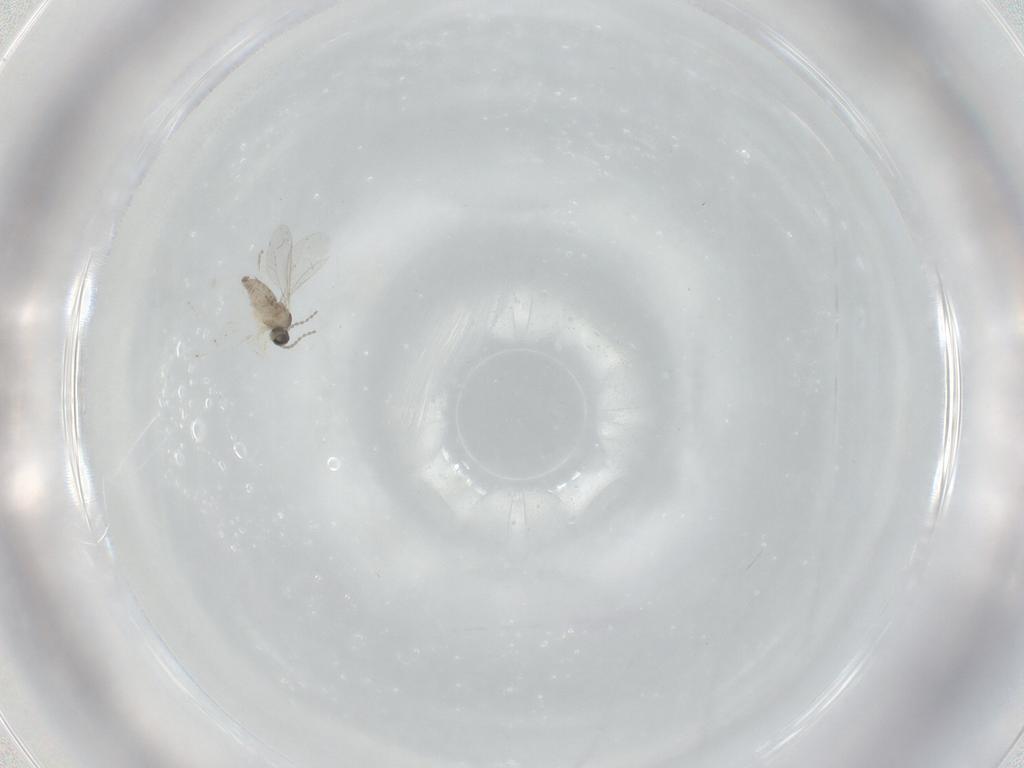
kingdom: Animalia
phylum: Arthropoda
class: Insecta
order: Diptera
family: Cecidomyiidae
